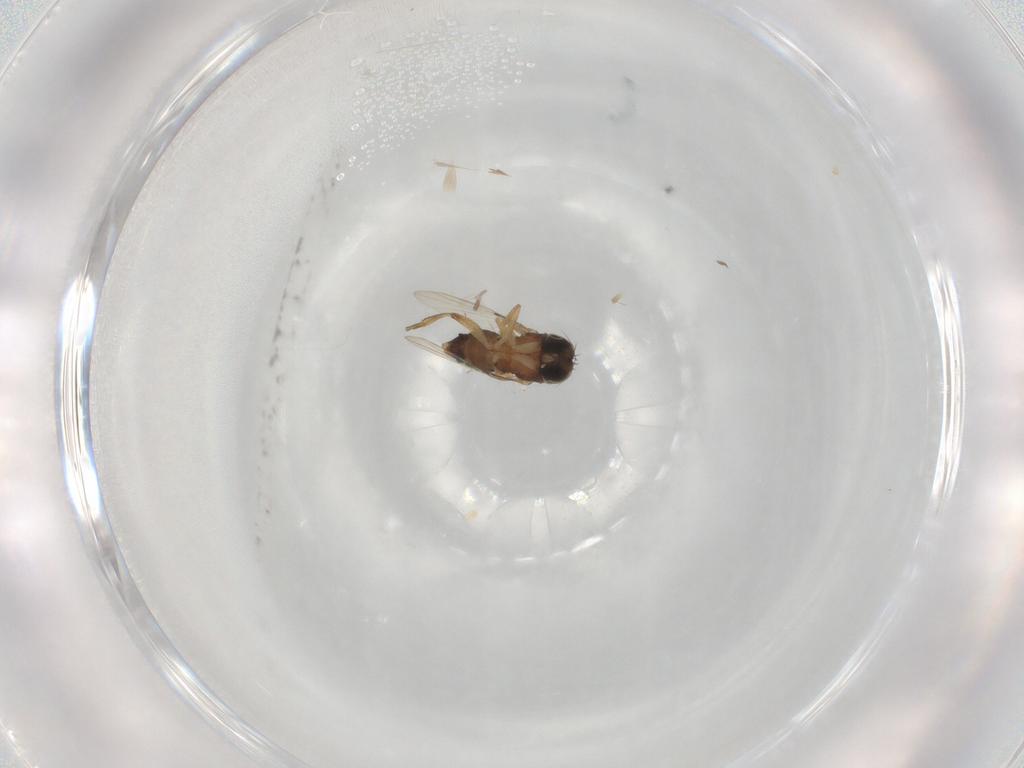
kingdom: Animalia
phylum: Arthropoda
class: Insecta
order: Diptera
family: Phoridae
